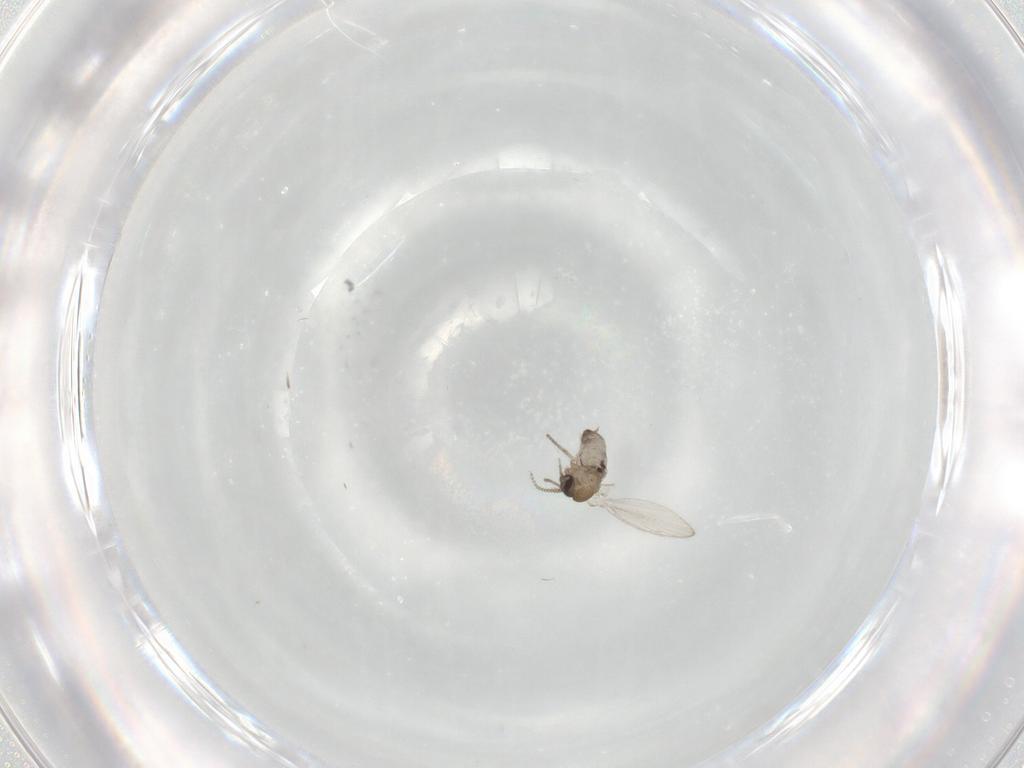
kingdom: Animalia
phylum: Arthropoda
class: Insecta
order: Diptera
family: Psychodidae
